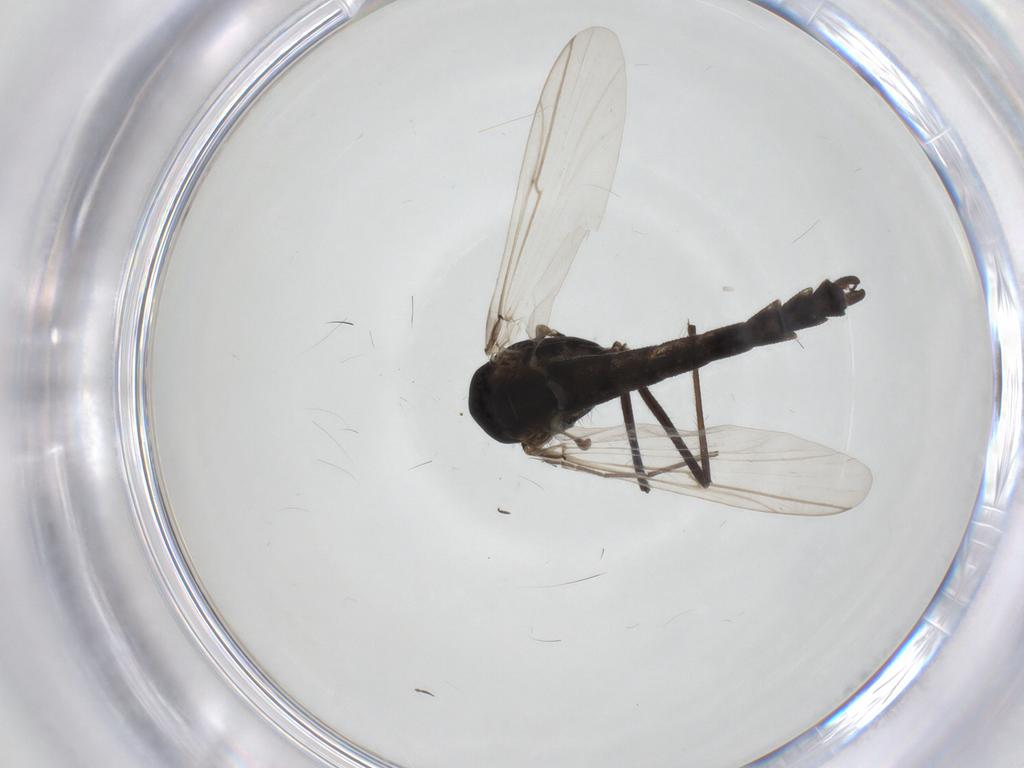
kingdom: Animalia
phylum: Arthropoda
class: Insecta
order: Diptera
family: Chironomidae
